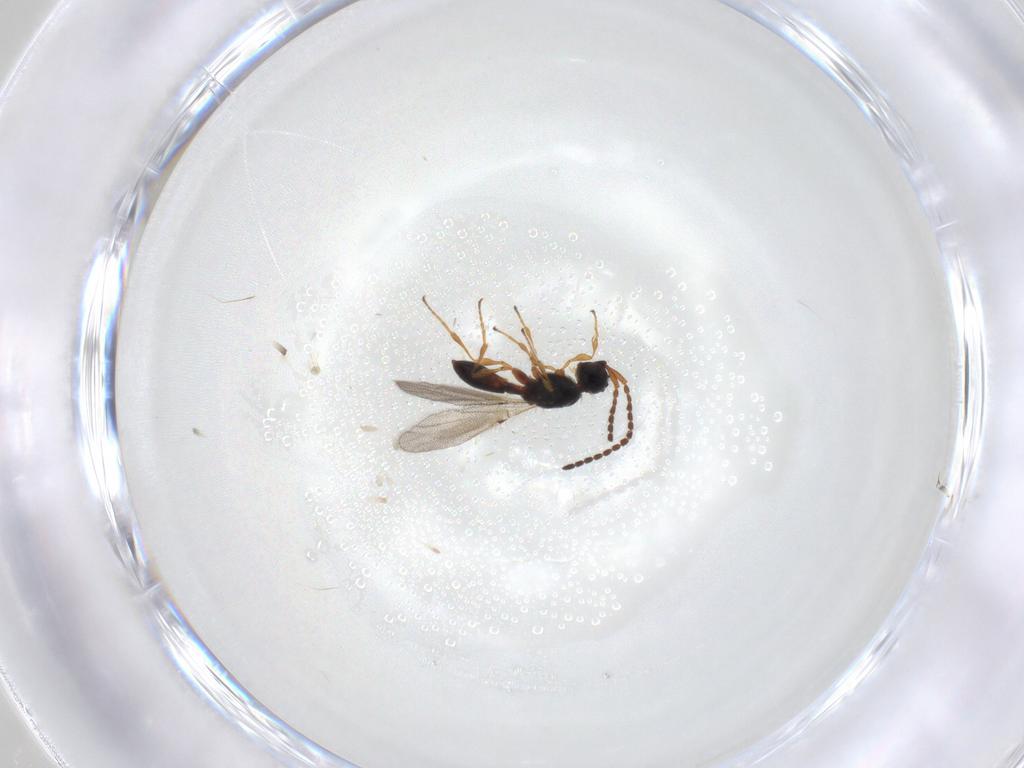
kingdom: Animalia
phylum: Arthropoda
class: Insecta
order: Hymenoptera
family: Diapriidae
